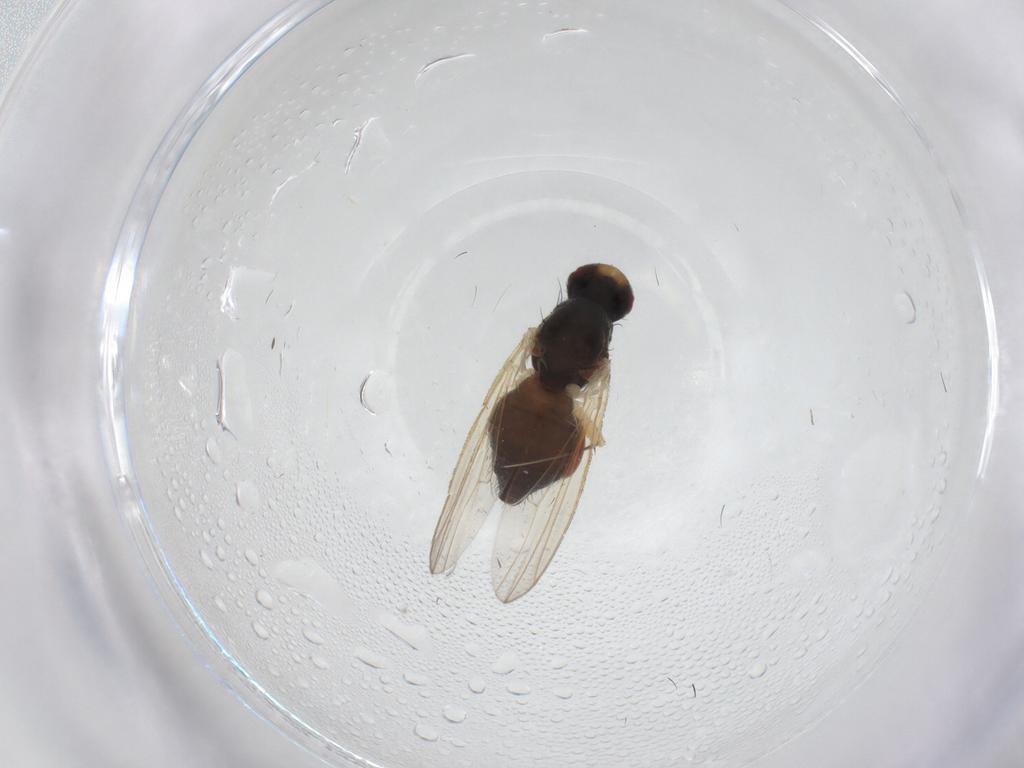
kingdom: Animalia
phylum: Arthropoda
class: Insecta
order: Diptera
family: Heleomyzidae
